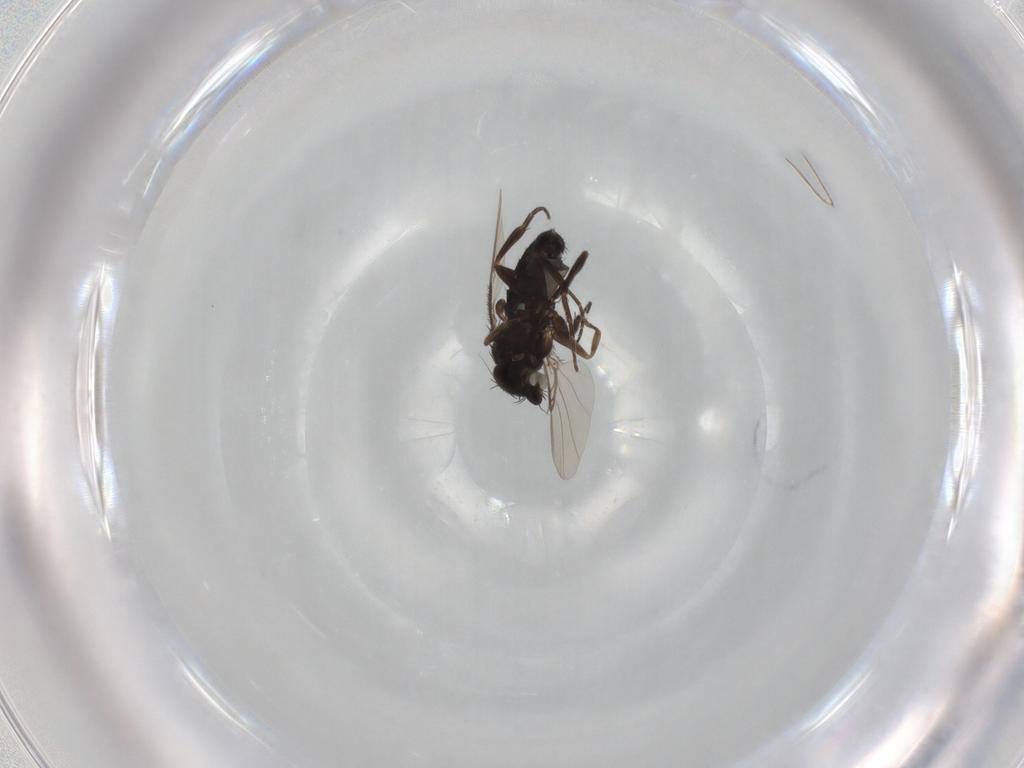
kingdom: Animalia
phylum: Arthropoda
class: Insecta
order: Diptera
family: Phoridae
